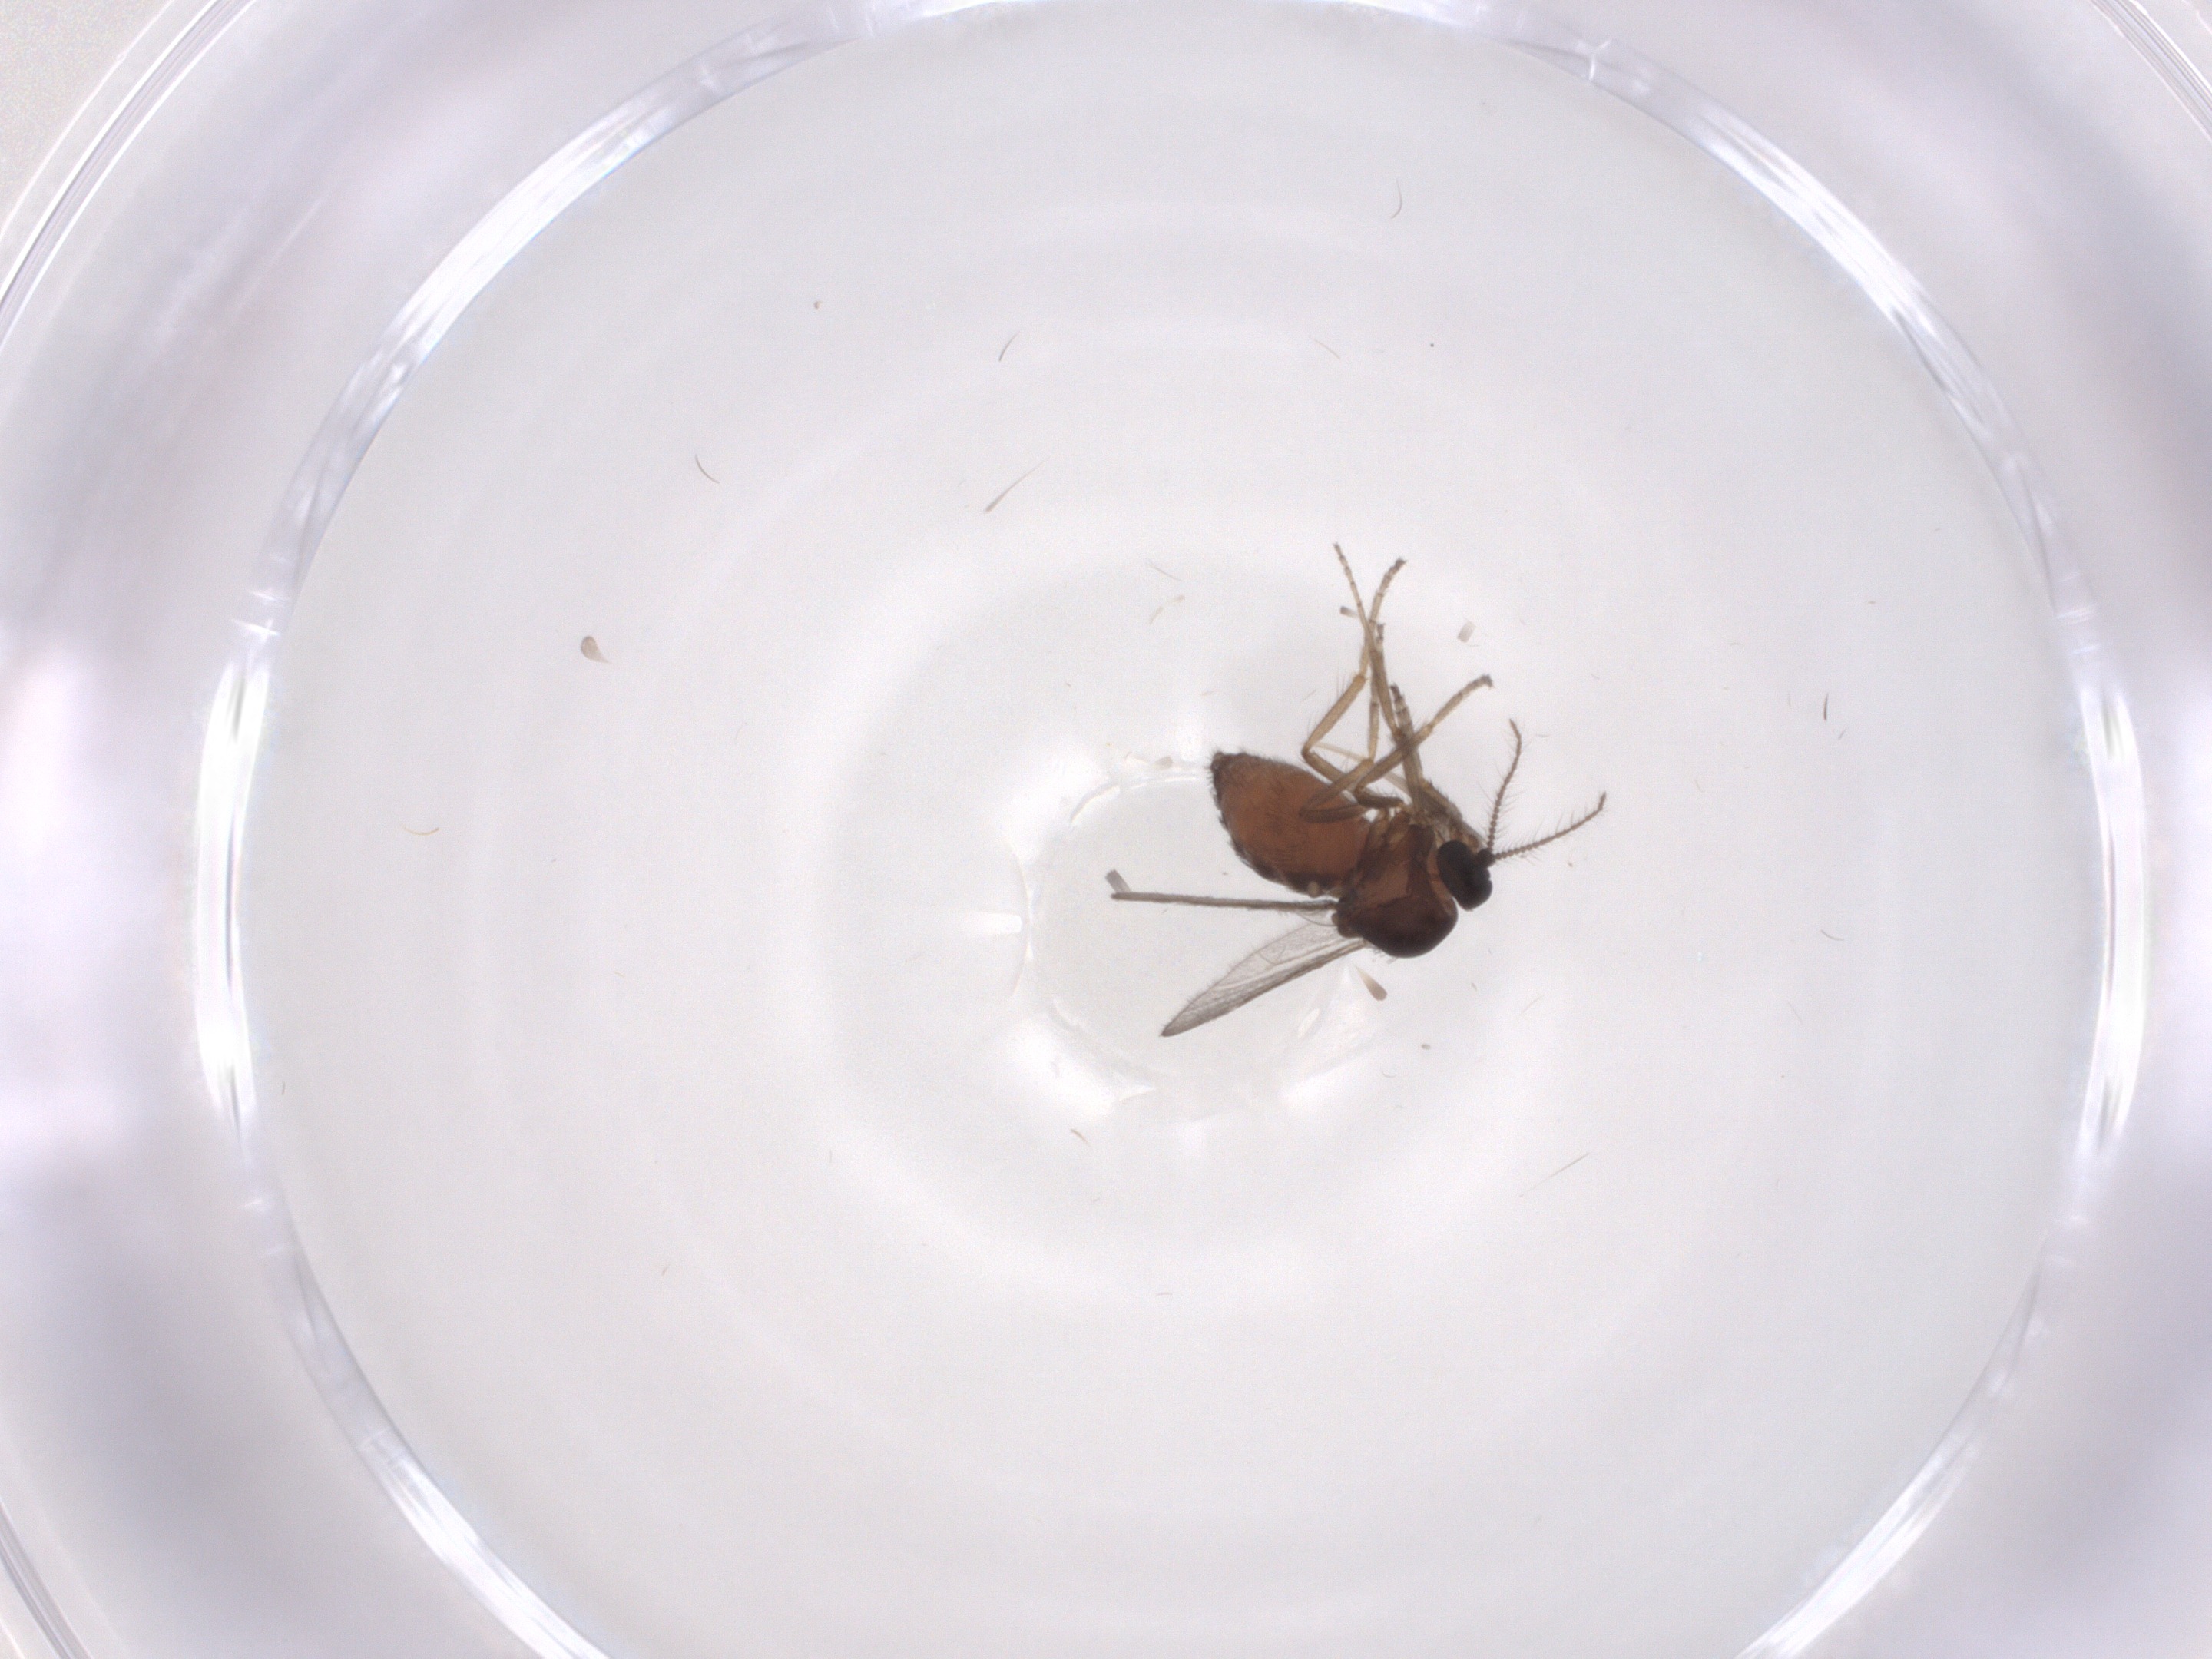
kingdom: Animalia
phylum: Arthropoda
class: Insecta
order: Diptera
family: Ceratopogonidae
